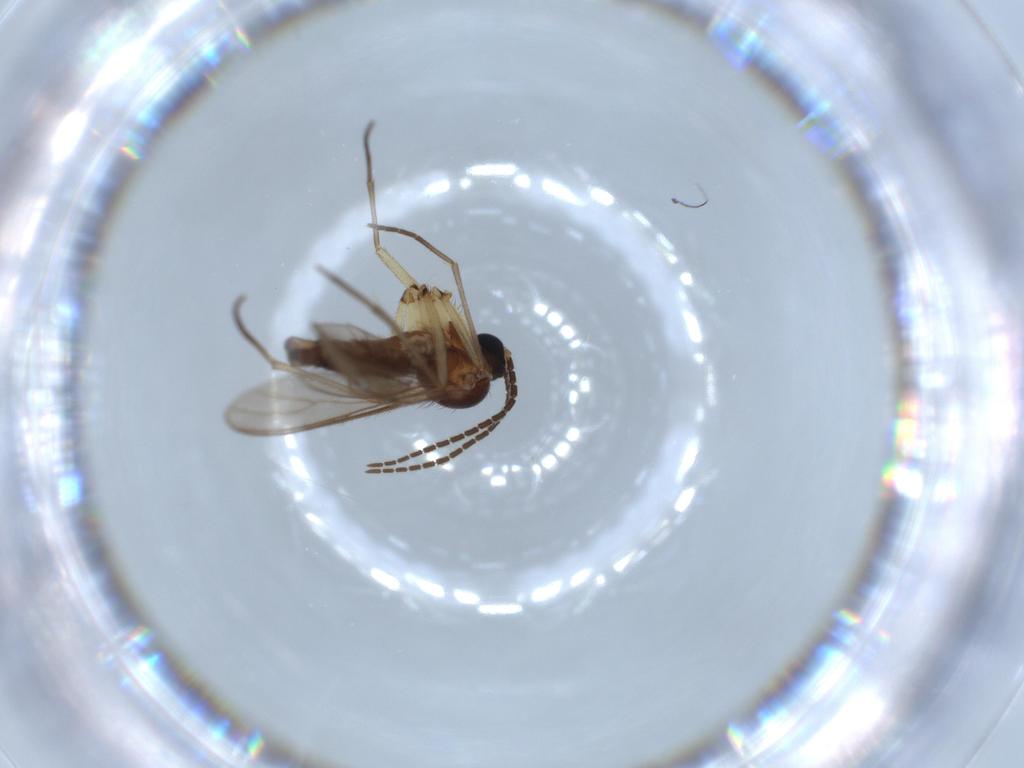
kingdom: Animalia
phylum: Arthropoda
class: Insecta
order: Diptera
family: Sciaridae
